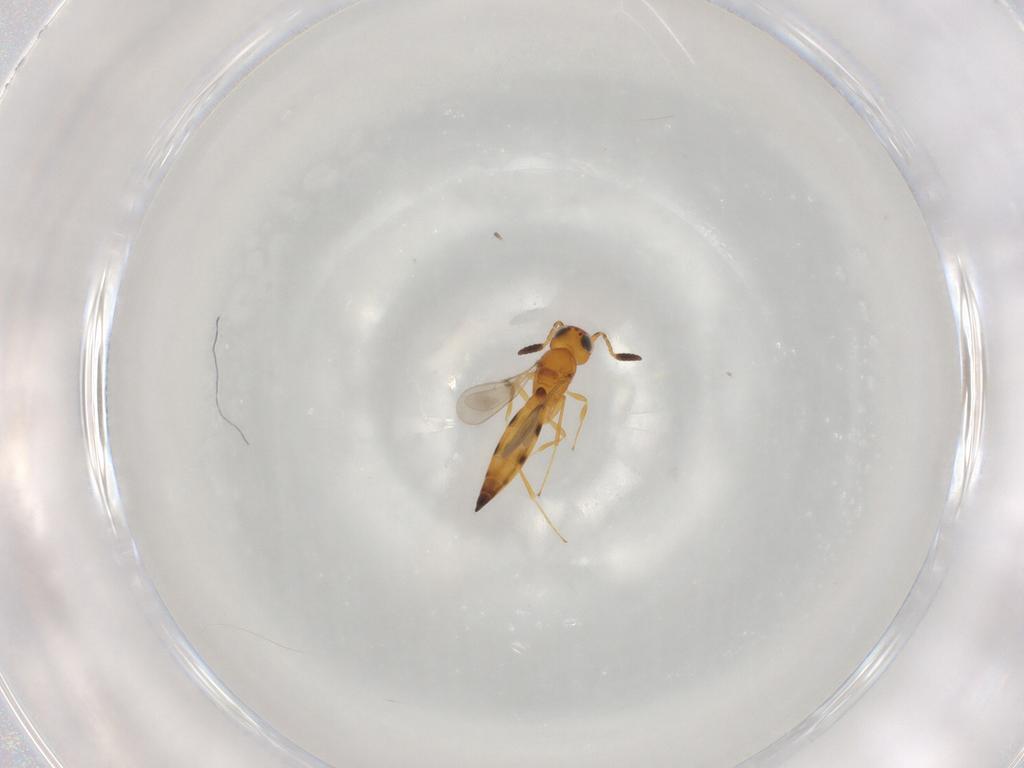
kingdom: Animalia
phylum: Arthropoda
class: Insecta
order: Hymenoptera
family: Scelionidae
